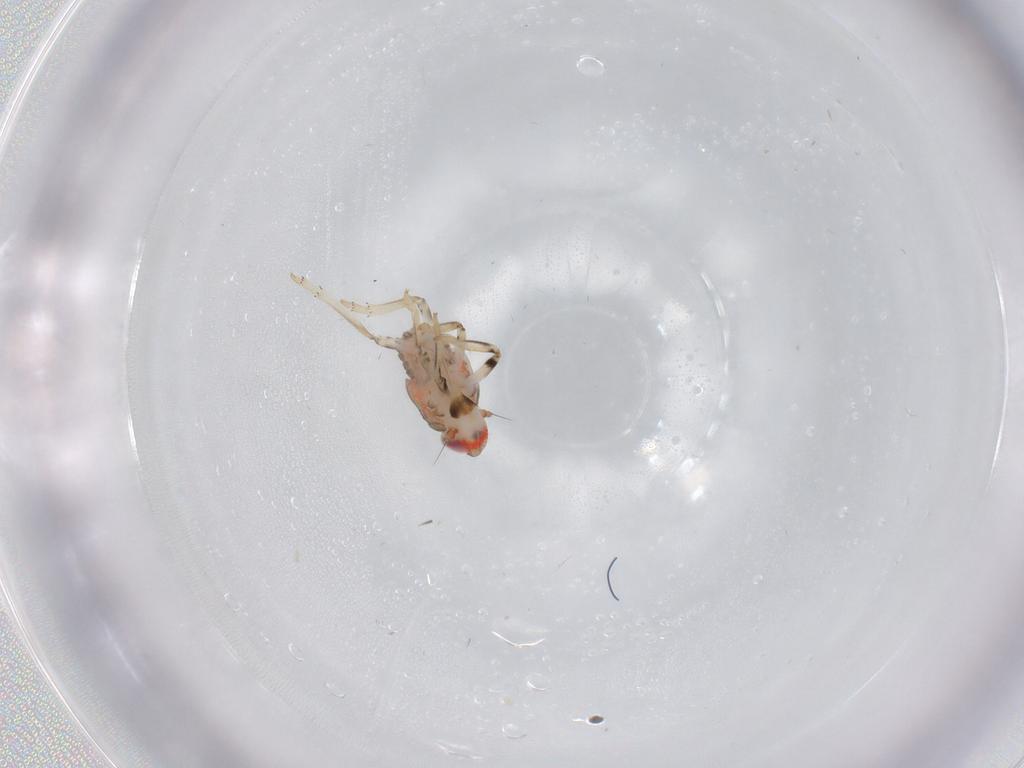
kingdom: Animalia
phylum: Arthropoda
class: Insecta
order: Hemiptera
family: Issidae
